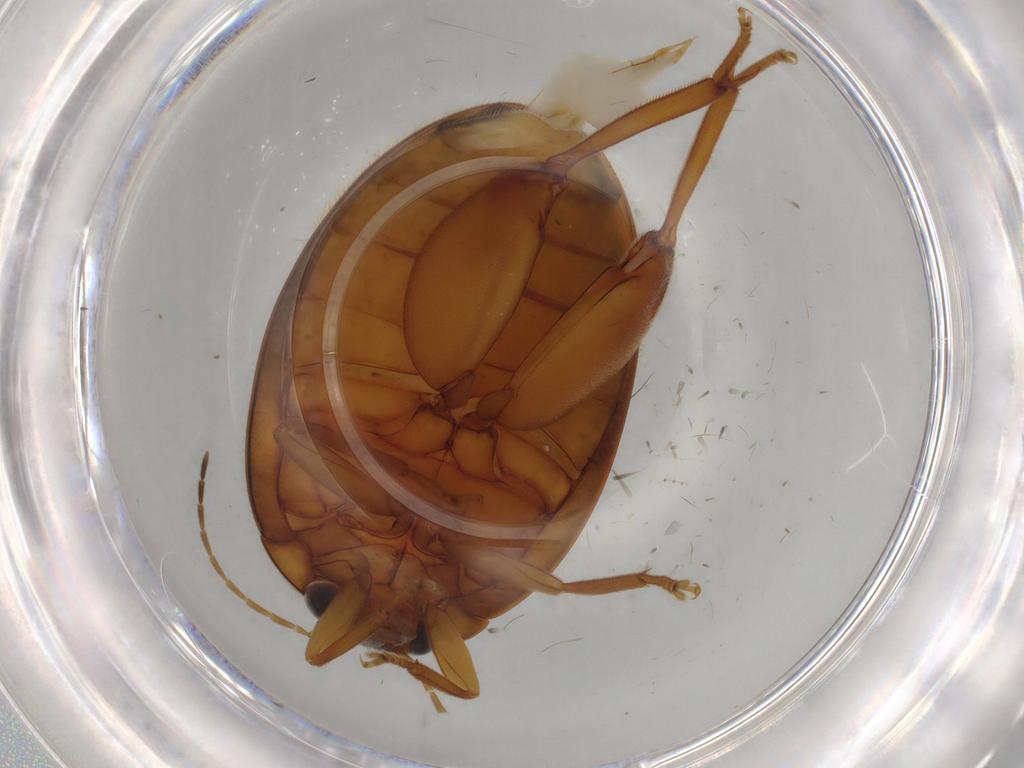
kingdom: Animalia
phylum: Arthropoda
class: Insecta
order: Coleoptera
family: Scirtidae
